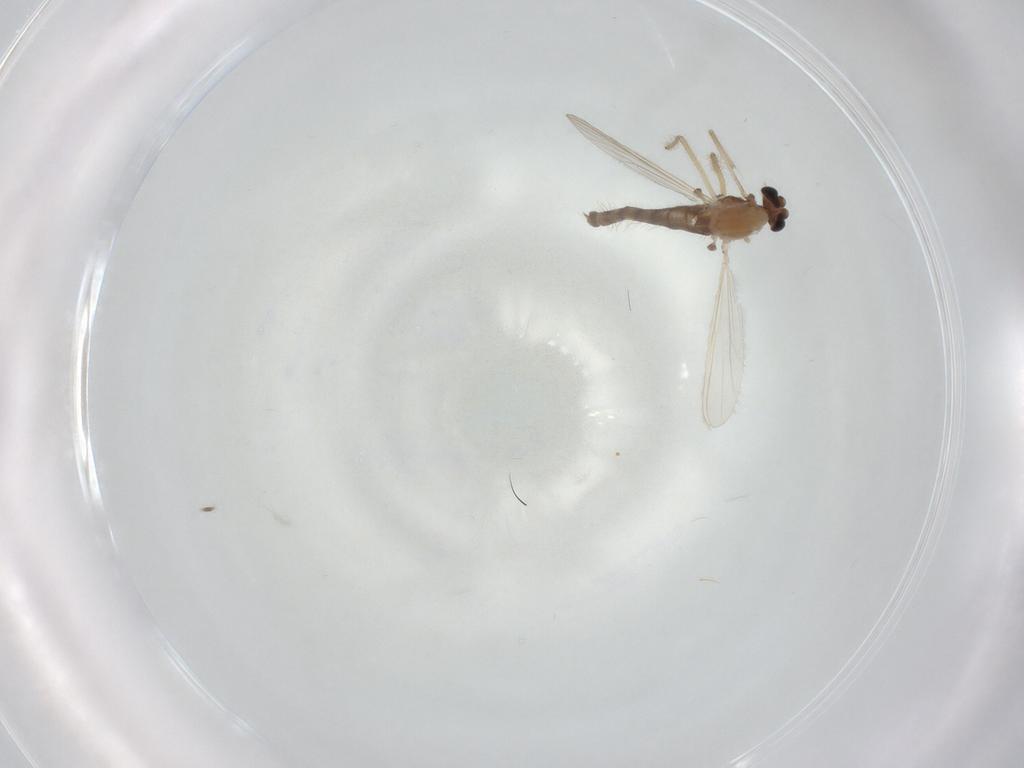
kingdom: Animalia
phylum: Arthropoda
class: Insecta
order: Diptera
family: Chironomidae
